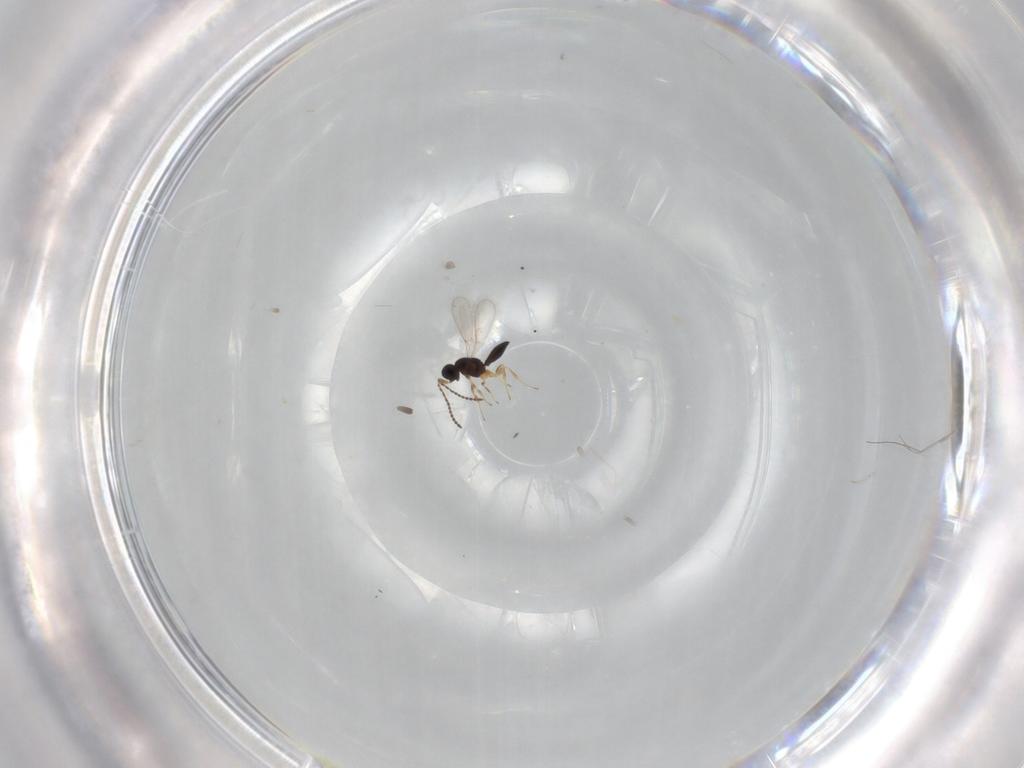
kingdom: Animalia
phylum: Arthropoda
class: Insecta
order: Hymenoptera
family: Scelionidae
